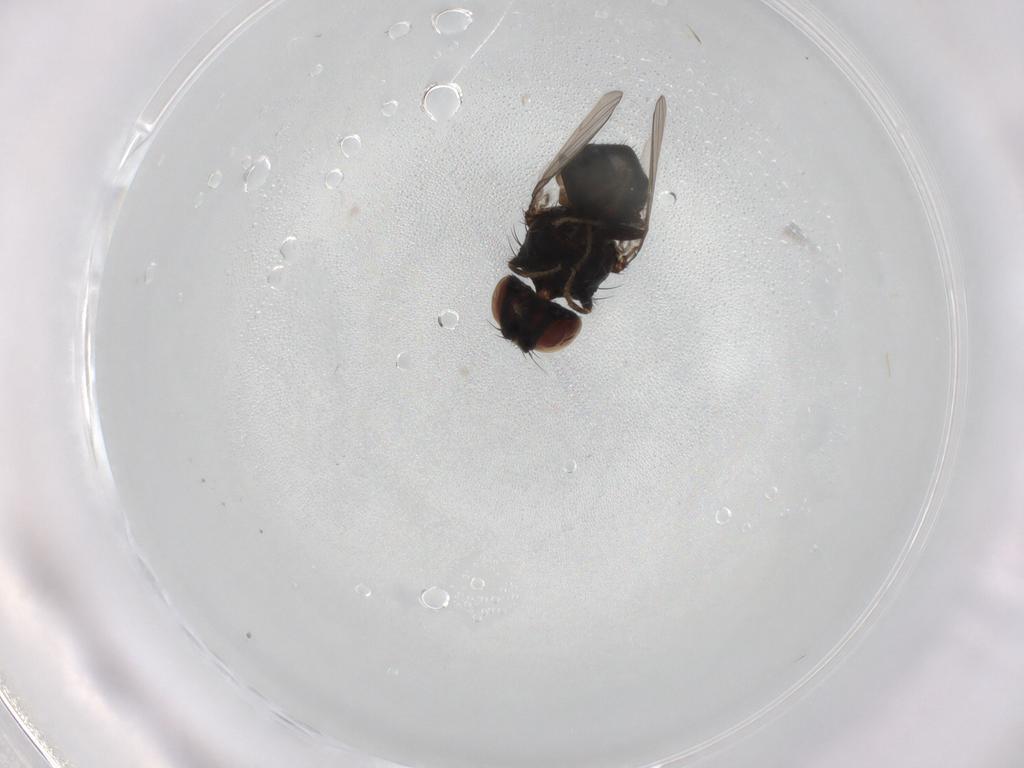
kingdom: Animalia
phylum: Arthropoda
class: Insecta
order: Diptera
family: Milichiidae
